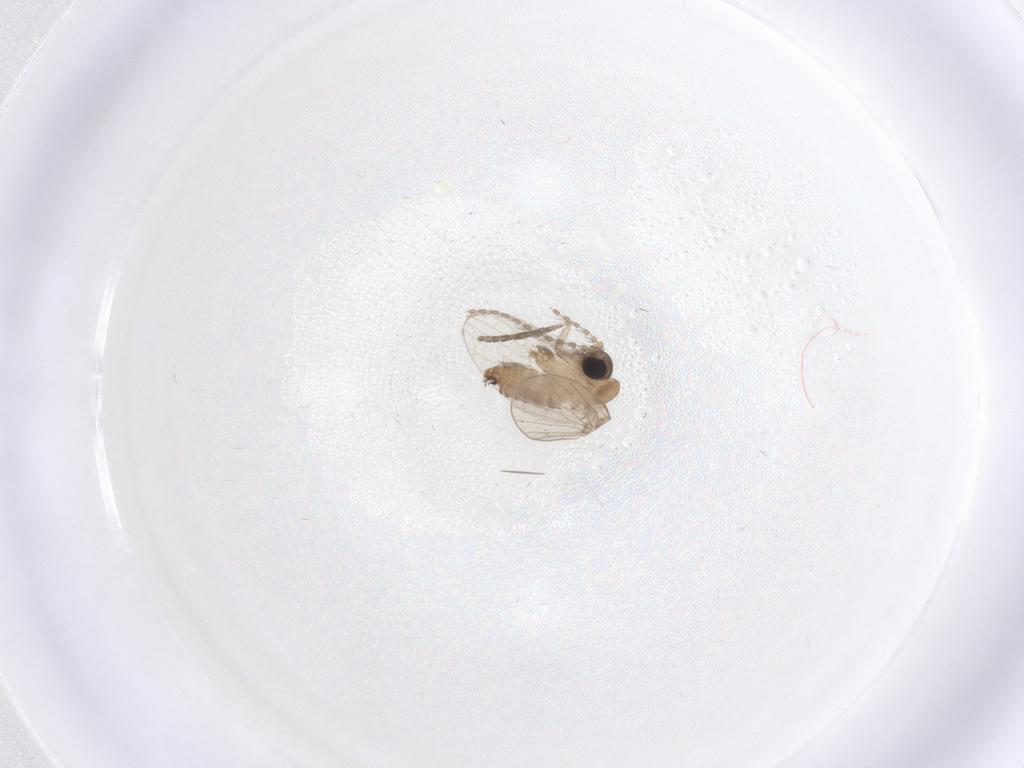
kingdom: Animalia
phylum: Arthropoda
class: Insecta
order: Diptera
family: Psychodidae
